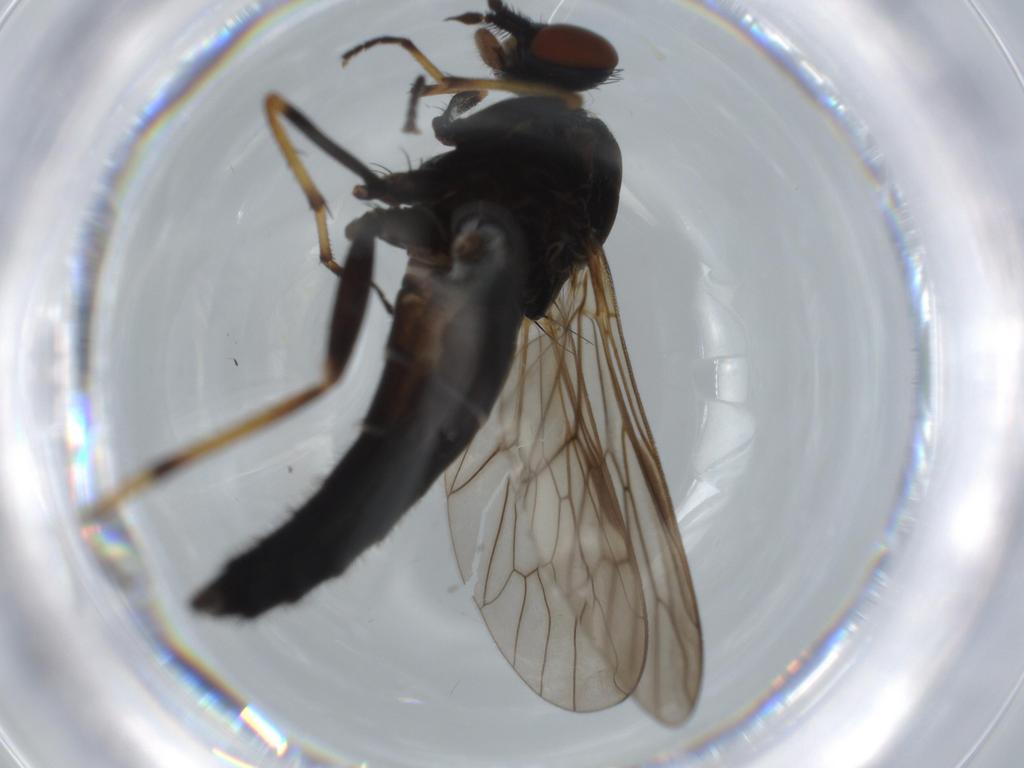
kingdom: Animalia
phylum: Arthropoda
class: Insecta
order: Diptera
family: Therevidae
